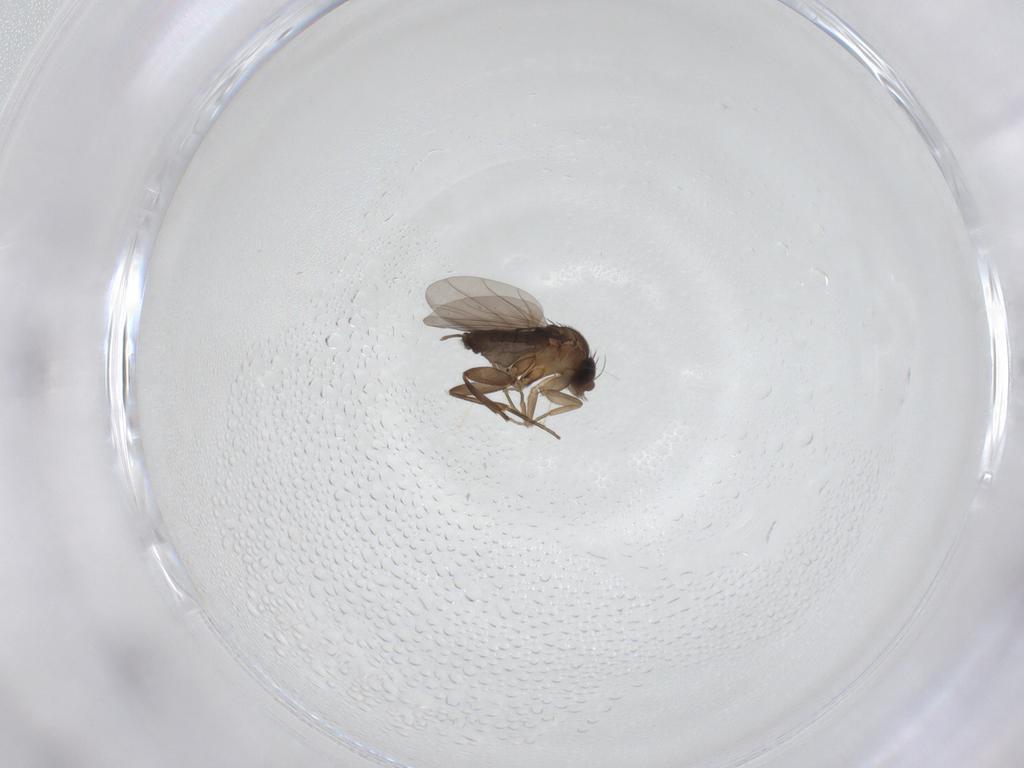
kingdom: Animalia
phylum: Arthropoda
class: Insecta
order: Diptera
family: Phoridae
